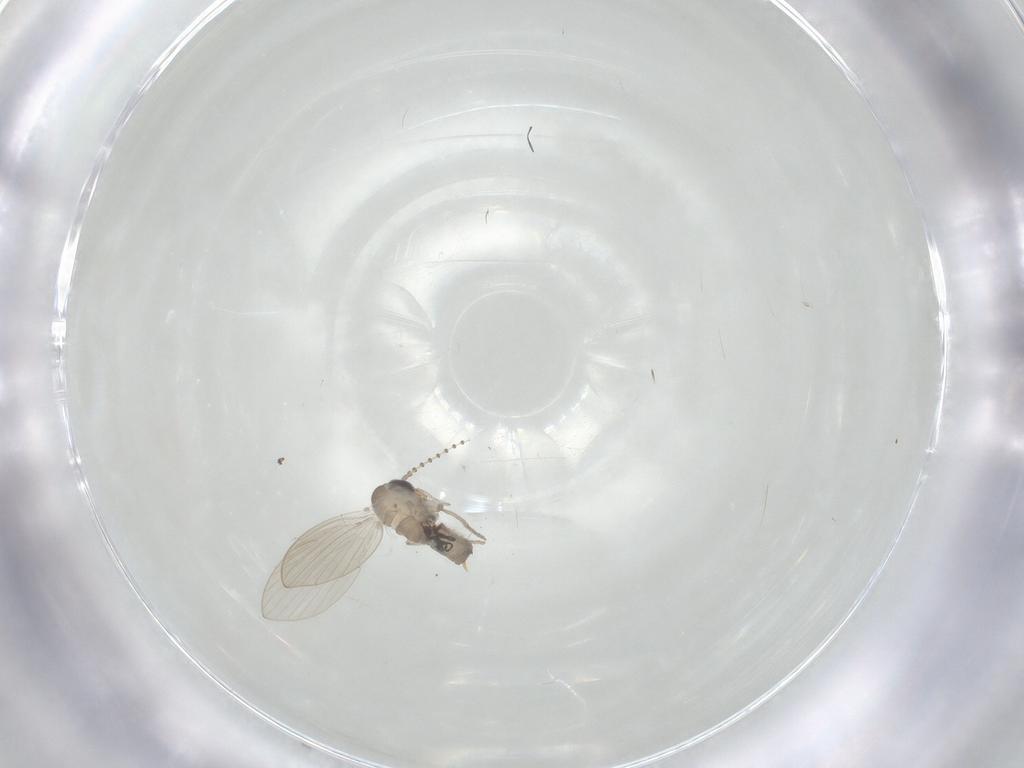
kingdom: Animalia
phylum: Arthropoda
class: Insecta
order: Diptera
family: Psychodidae
